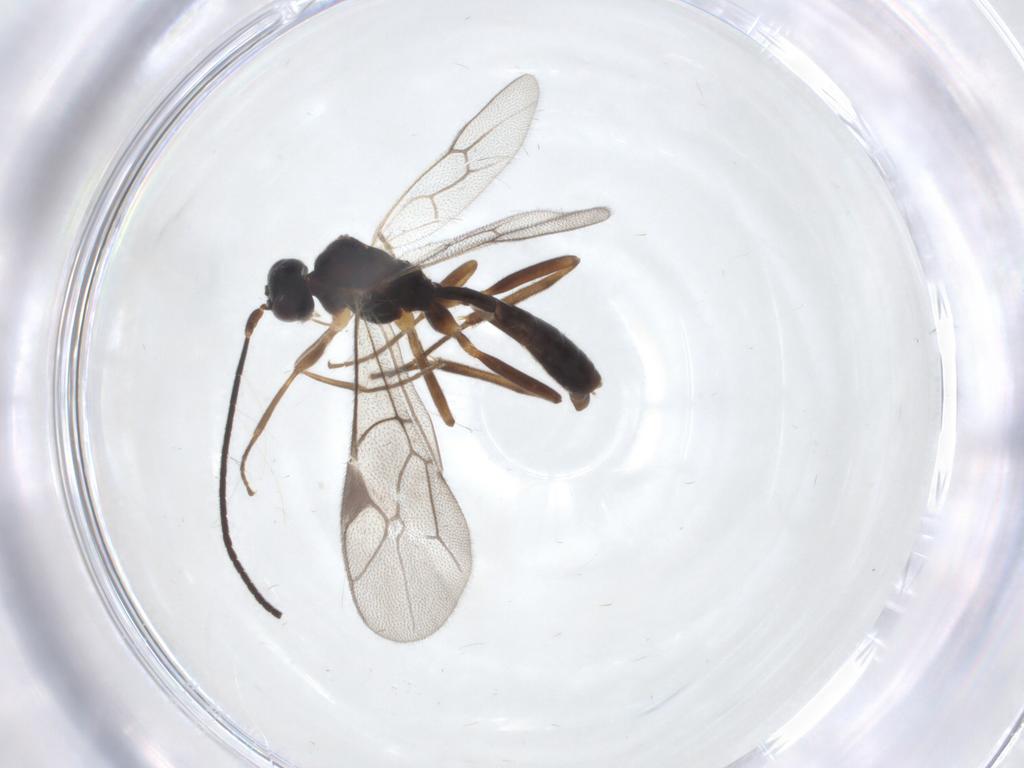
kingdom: Animalia
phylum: Arthropoda
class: Insecta
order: Hymenoptera
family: Ichneumonidae
